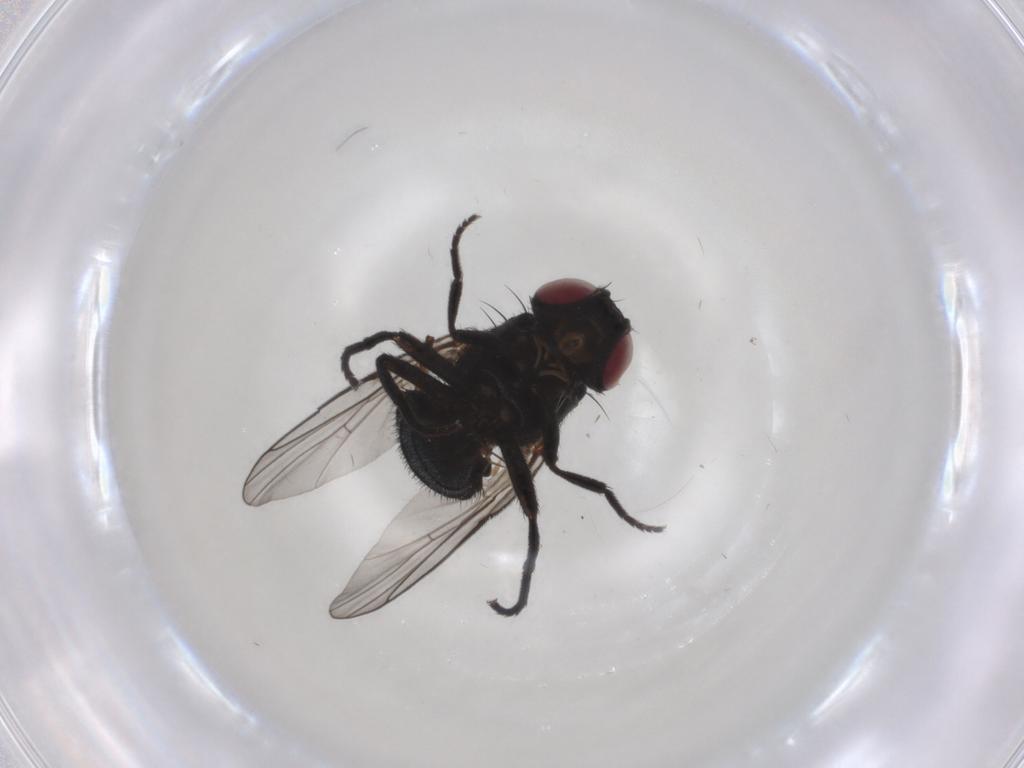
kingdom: Animalia
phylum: Arthropoda
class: Insecta
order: Diptera
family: Agromyzidae
